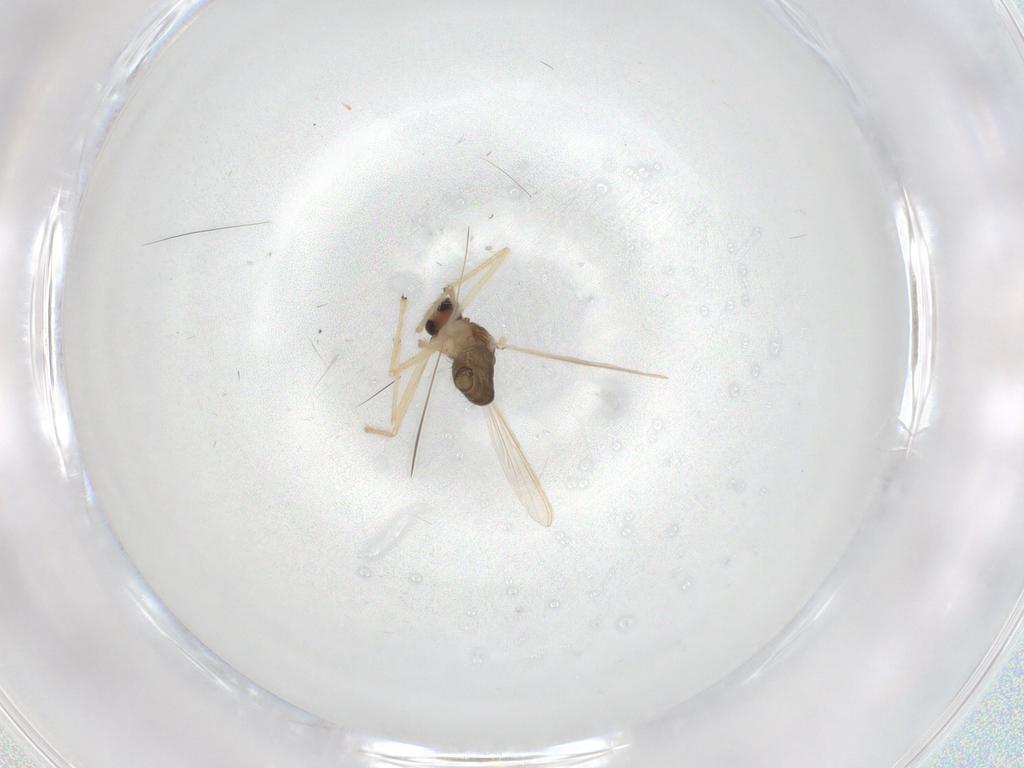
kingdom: Animalia
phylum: Arthropoda
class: Insecta
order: Diptera
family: Chironomidae
